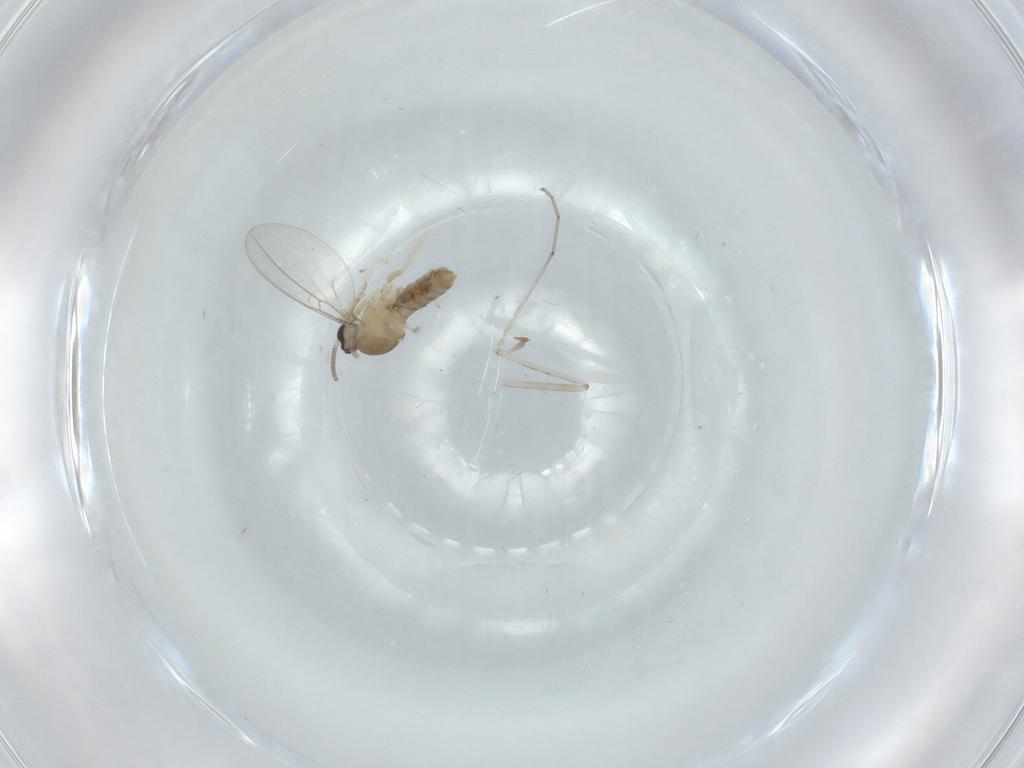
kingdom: Animalia
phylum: Arthropoda
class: Insecta
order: Diptera
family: Cecidomyiidae
